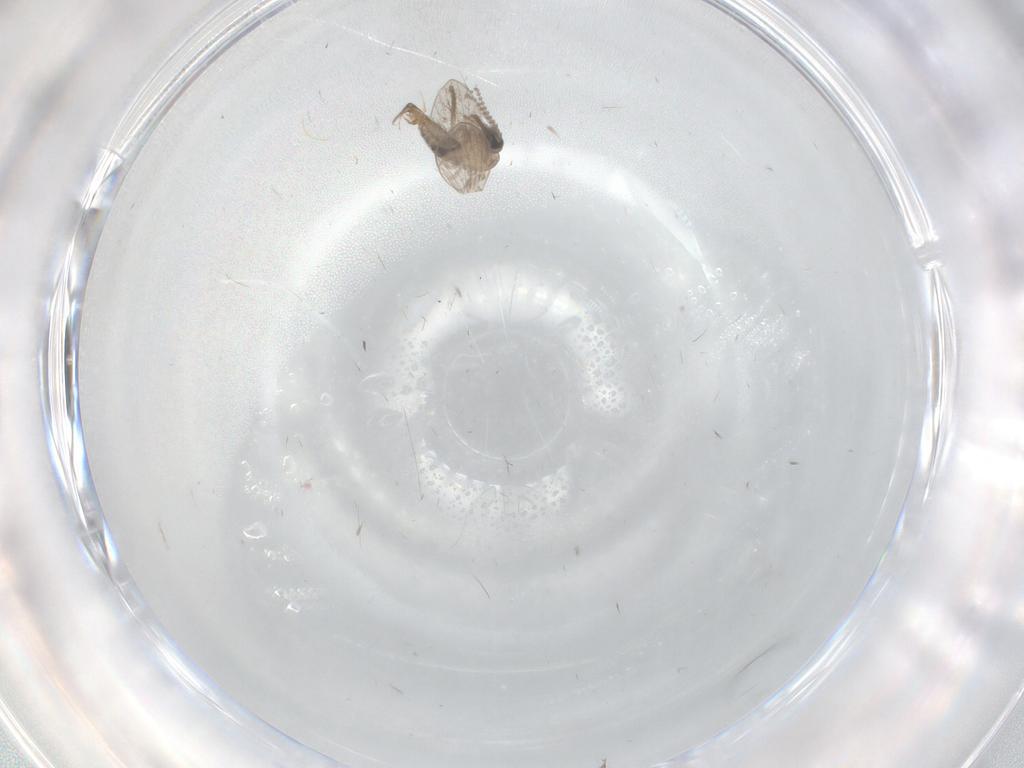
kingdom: Animalia
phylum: Arthropoda
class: Insecta
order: Diptera
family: Psychodidae
